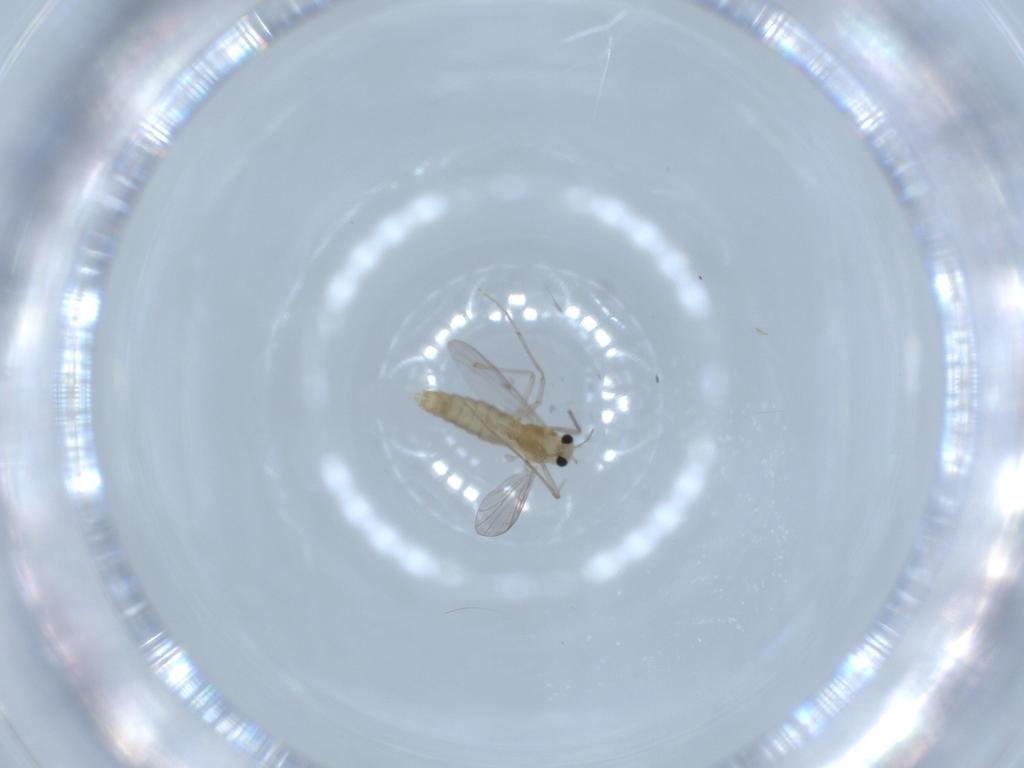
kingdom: Animalia
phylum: Arthropoda
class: Insecta
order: Diptera
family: Chironomidae
